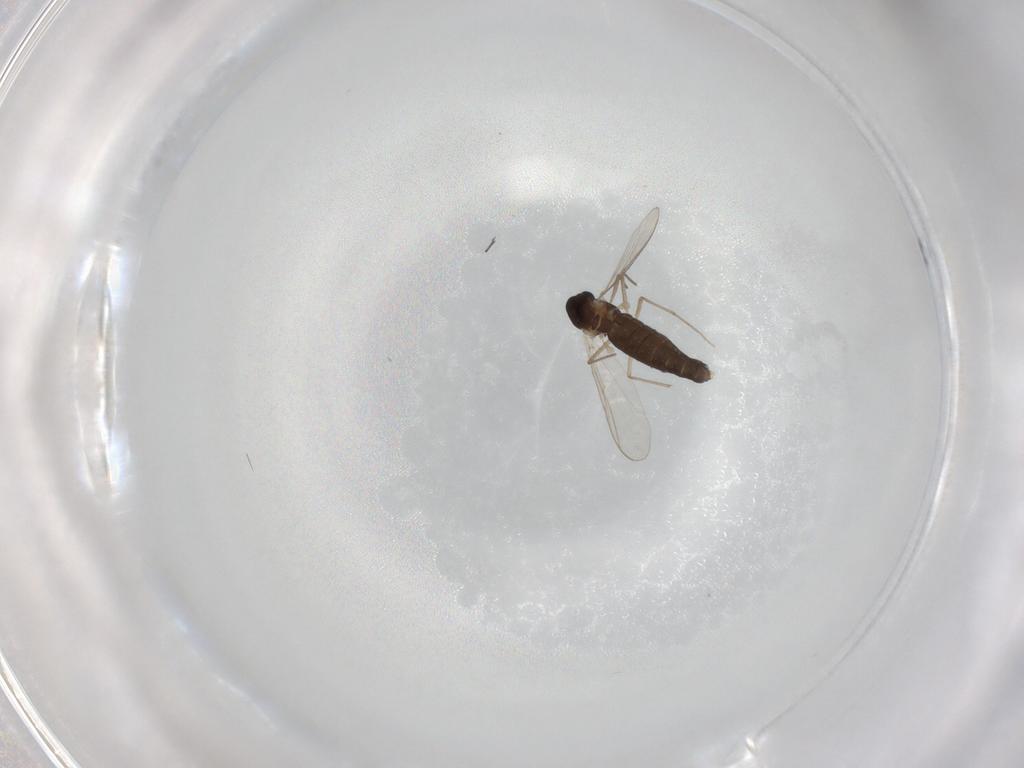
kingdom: Animalia
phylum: Arthropoda
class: Insecta
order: Diptera
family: Chironomidae
